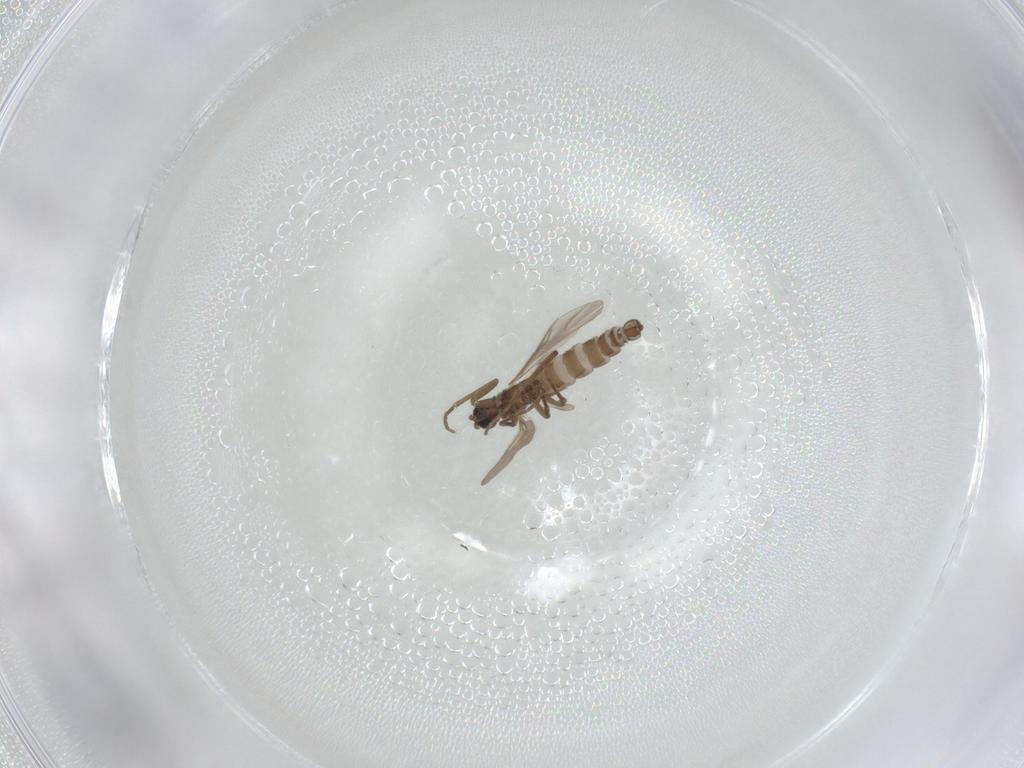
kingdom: Animalia
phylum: Arthropoda
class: Insecta
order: Diptera
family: Sciaridae
